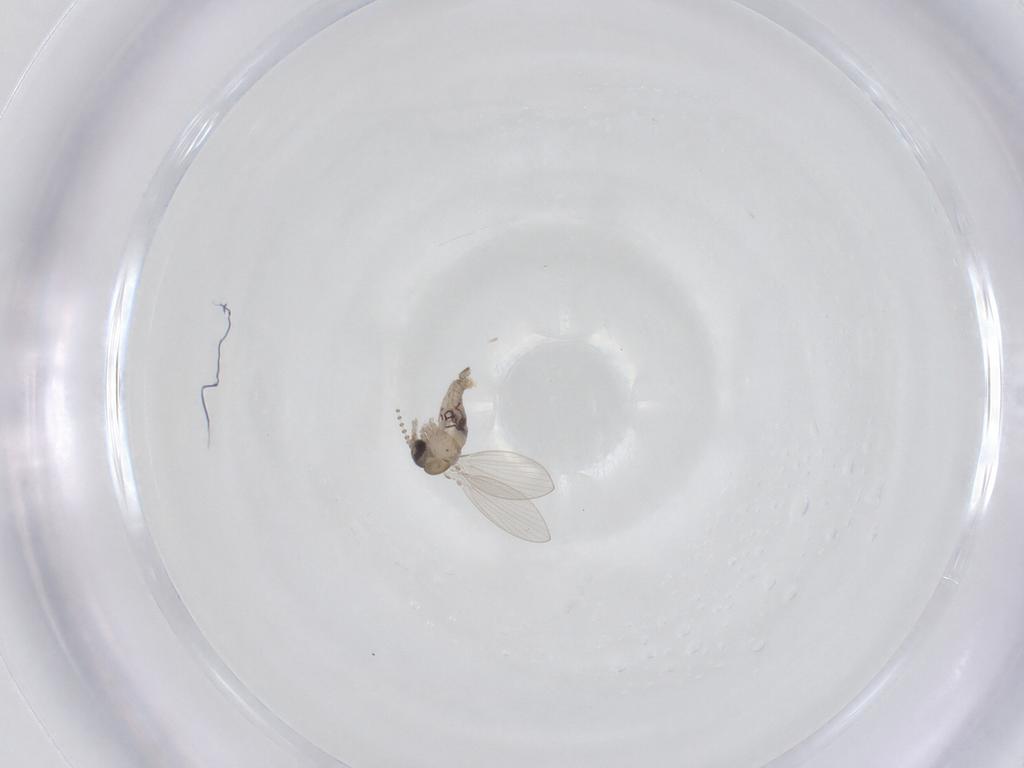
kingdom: Animalia
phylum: Arthropoda
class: Insecta
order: Diptera
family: Psychodidae
